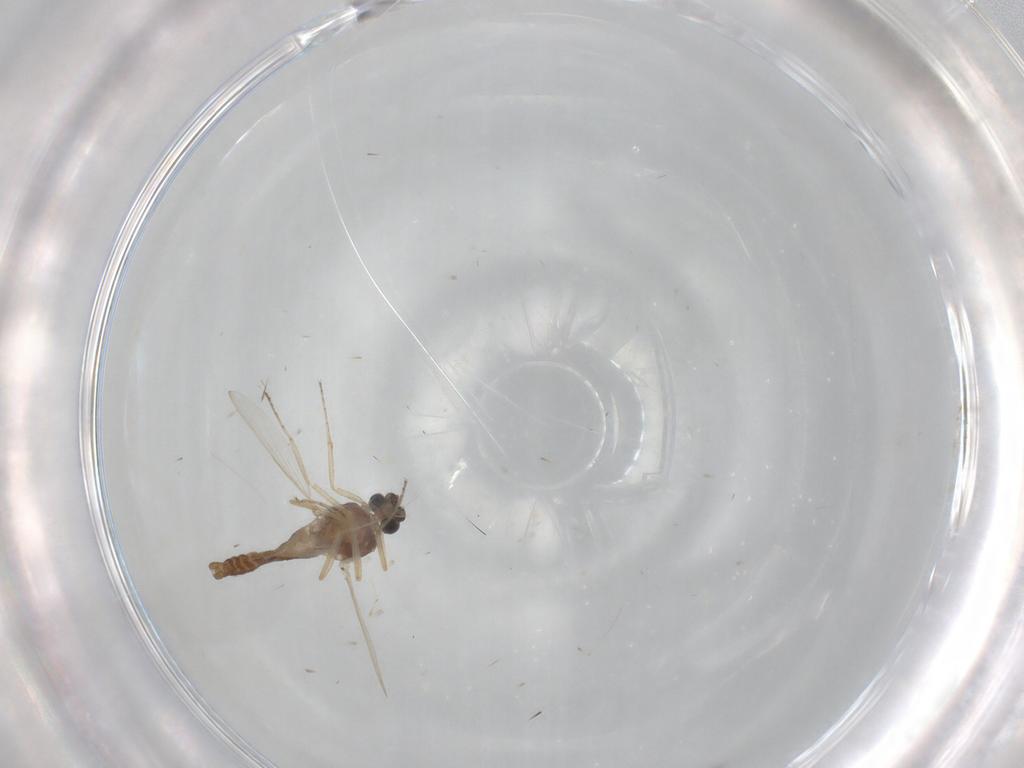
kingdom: Animalia
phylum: Arthropoda
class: Insecta
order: Diptera
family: Ceratopogonidae
